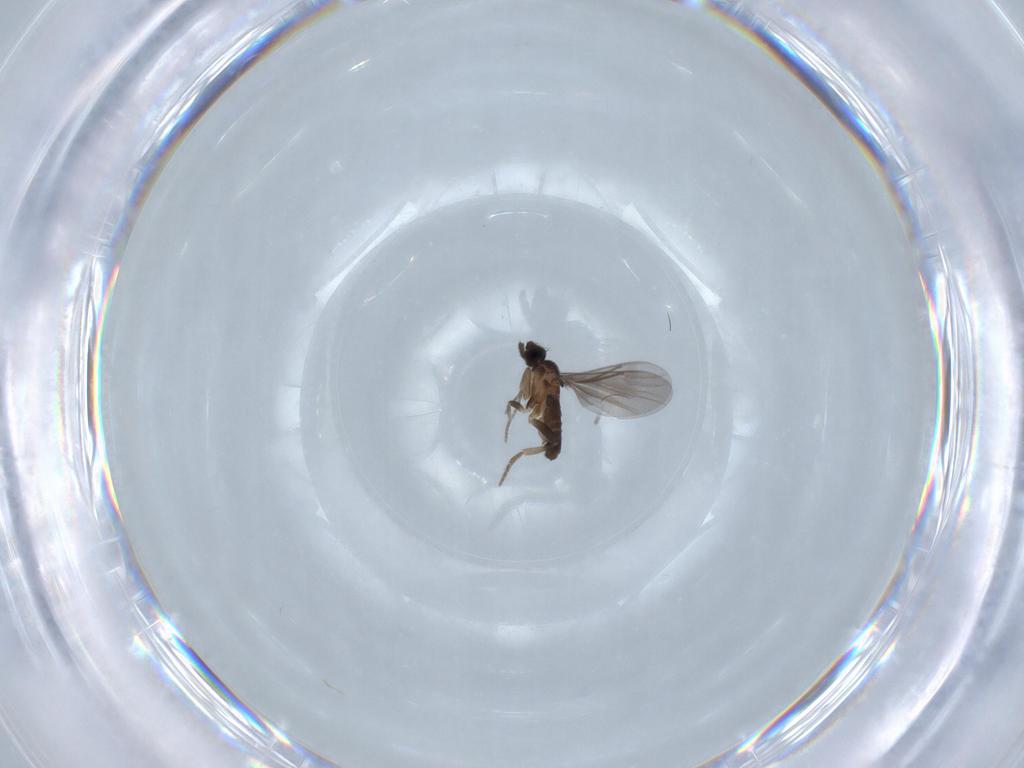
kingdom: Animalia
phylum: Arthropoda
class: Insecta
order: Diptera
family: Phoridae
